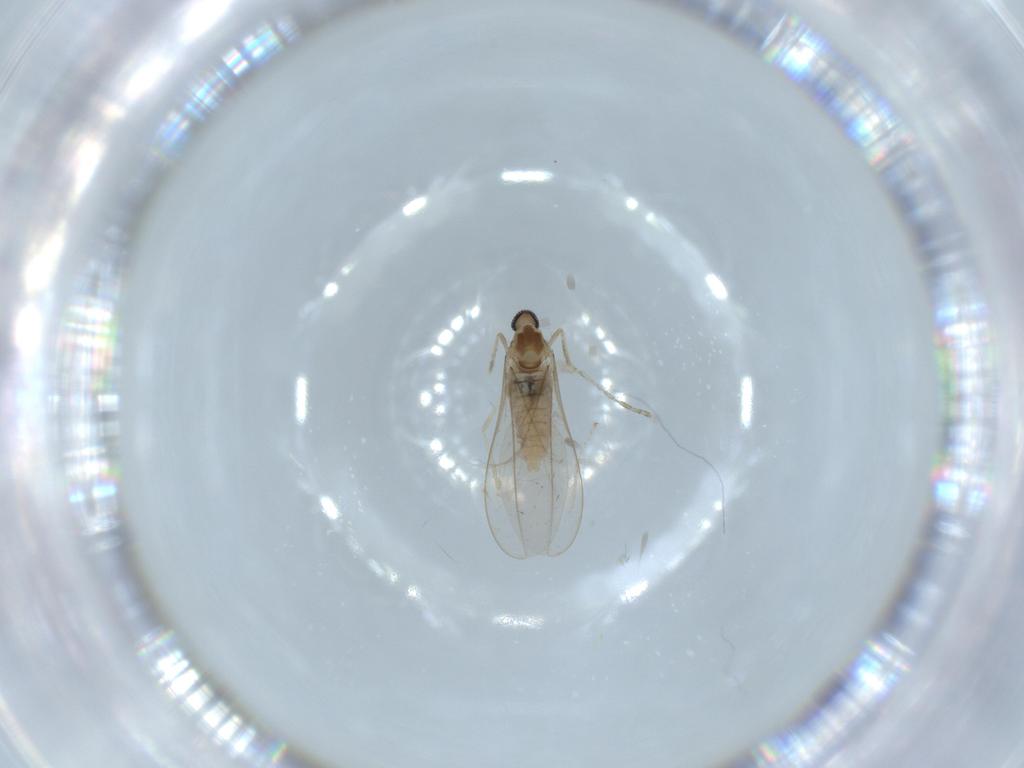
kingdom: Animalia
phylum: Arthropoda
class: Insecta
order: Diptera
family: Cecidomyiidae
